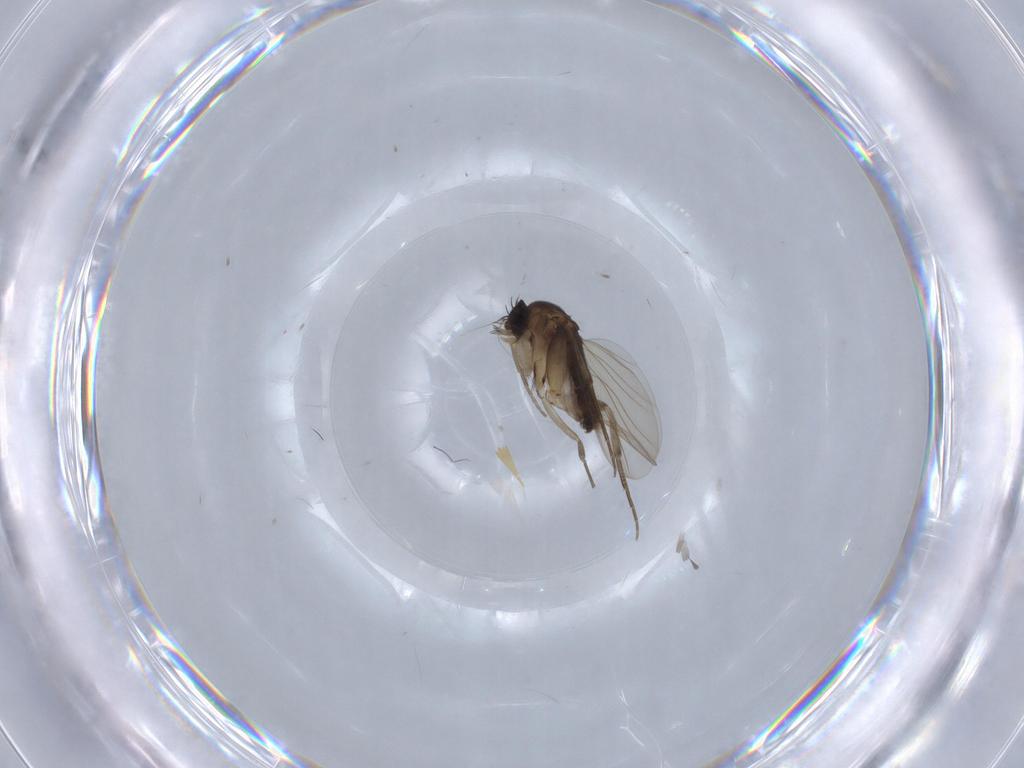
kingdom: Animalia
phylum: Arthropoda
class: Insecta
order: Diptera
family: Phoridae
